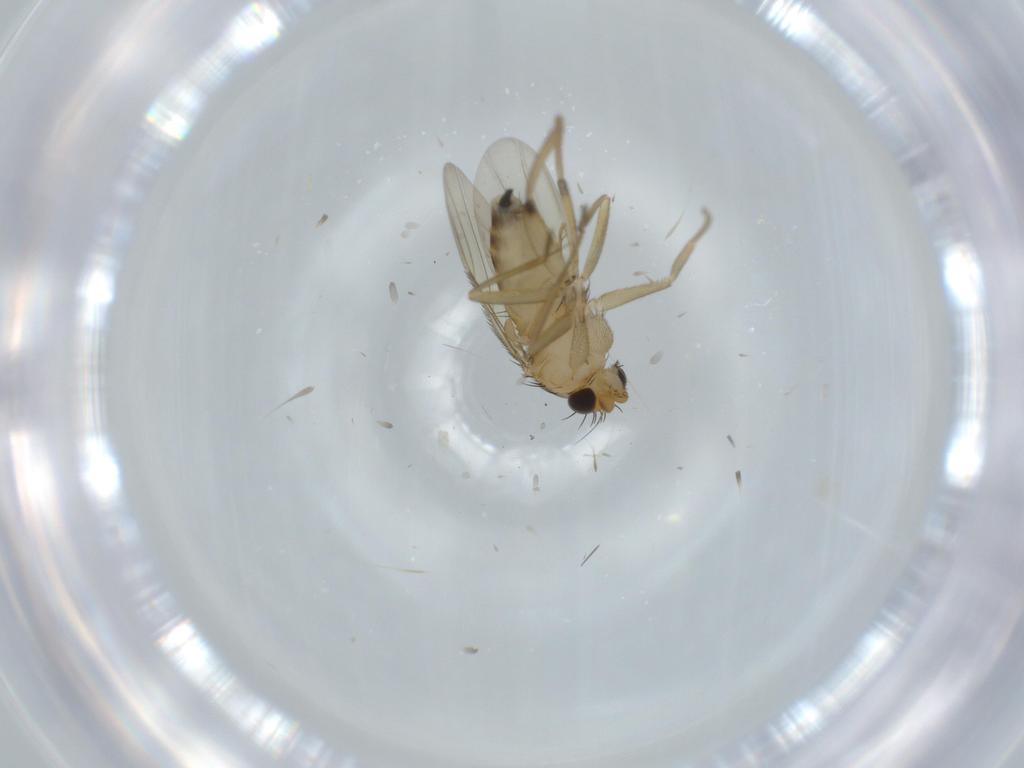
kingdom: Animalia
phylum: Arthropoda
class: Insecta
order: Diptera
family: Phoridae
